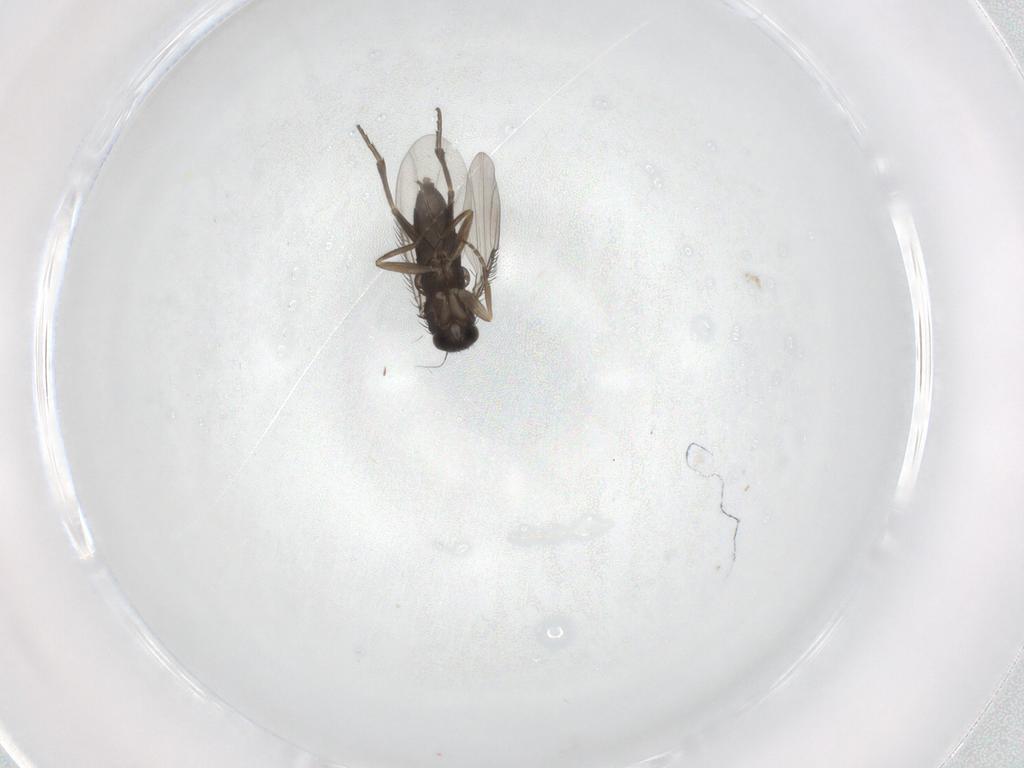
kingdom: Animalia
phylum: Arthropoda
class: Insecta
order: Diptera
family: Phoridae
